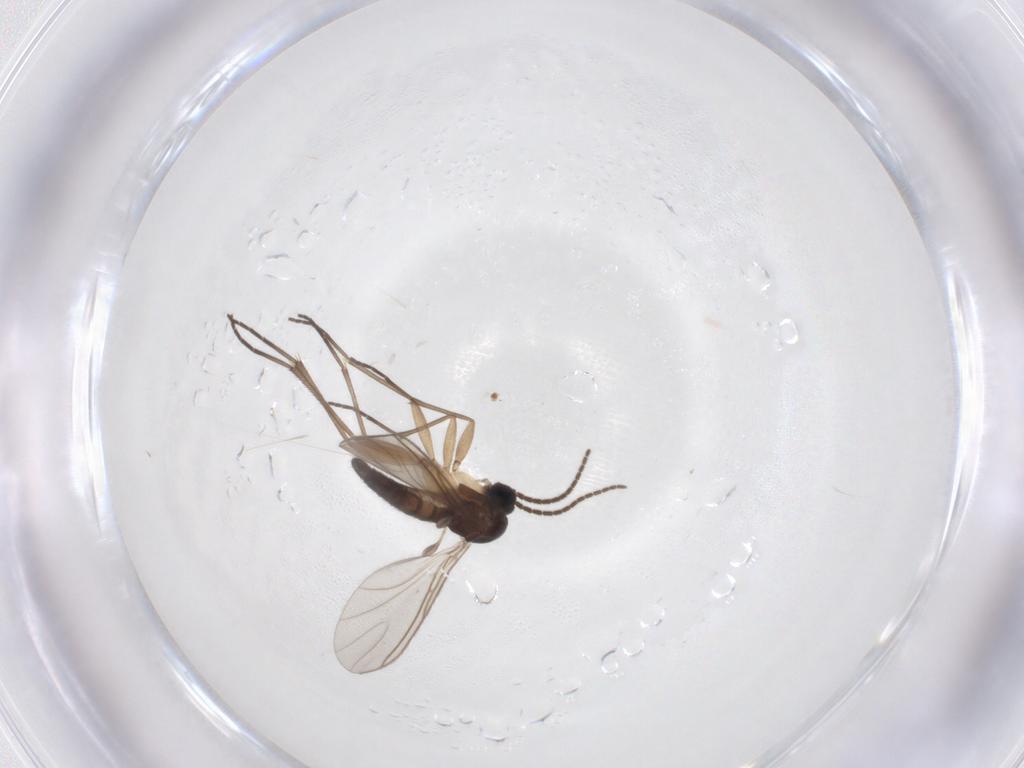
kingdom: Animalia
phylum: Arthropoda
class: Insecta
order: Diptera
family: Sciaridae
